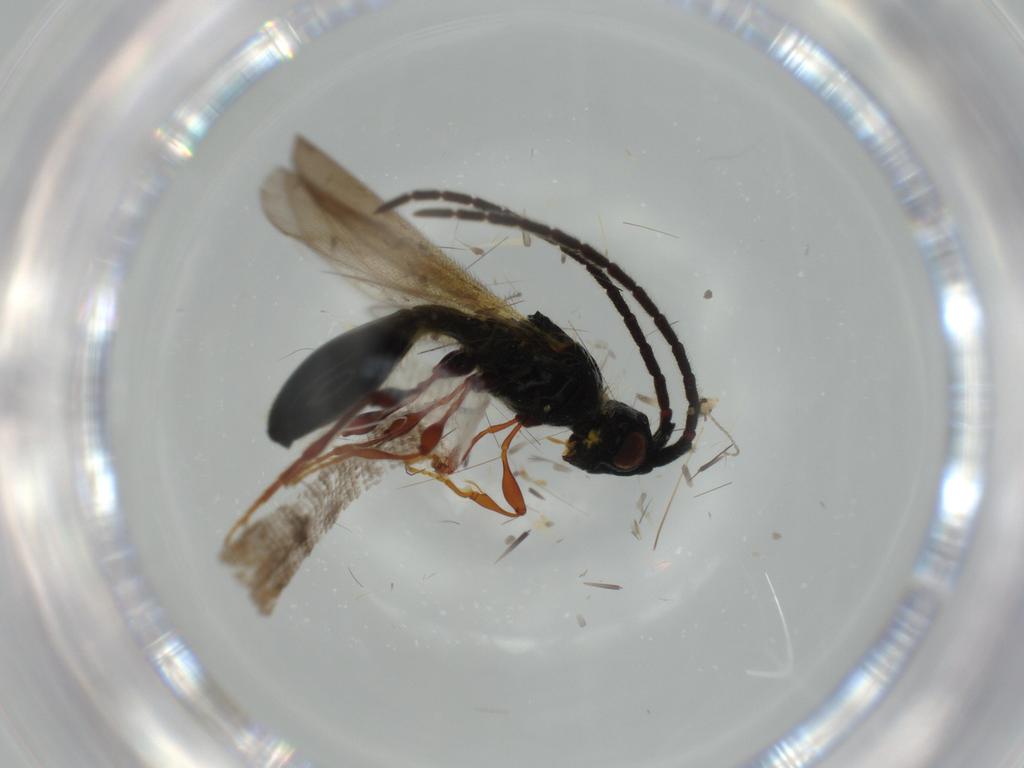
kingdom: Animalia
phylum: Arthropoda
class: Insecta
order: Hymenoptera
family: Diapriidae
